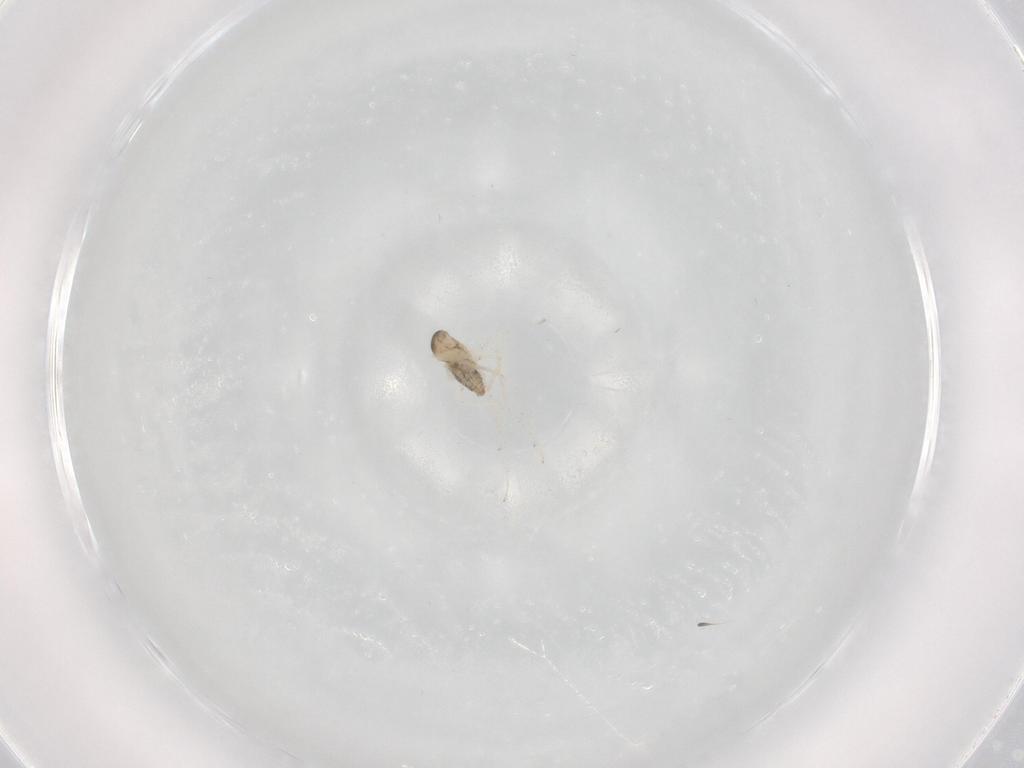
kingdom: Animalia
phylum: Arthropoda
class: Insecta
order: Diptera
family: Cecidomyiidae
